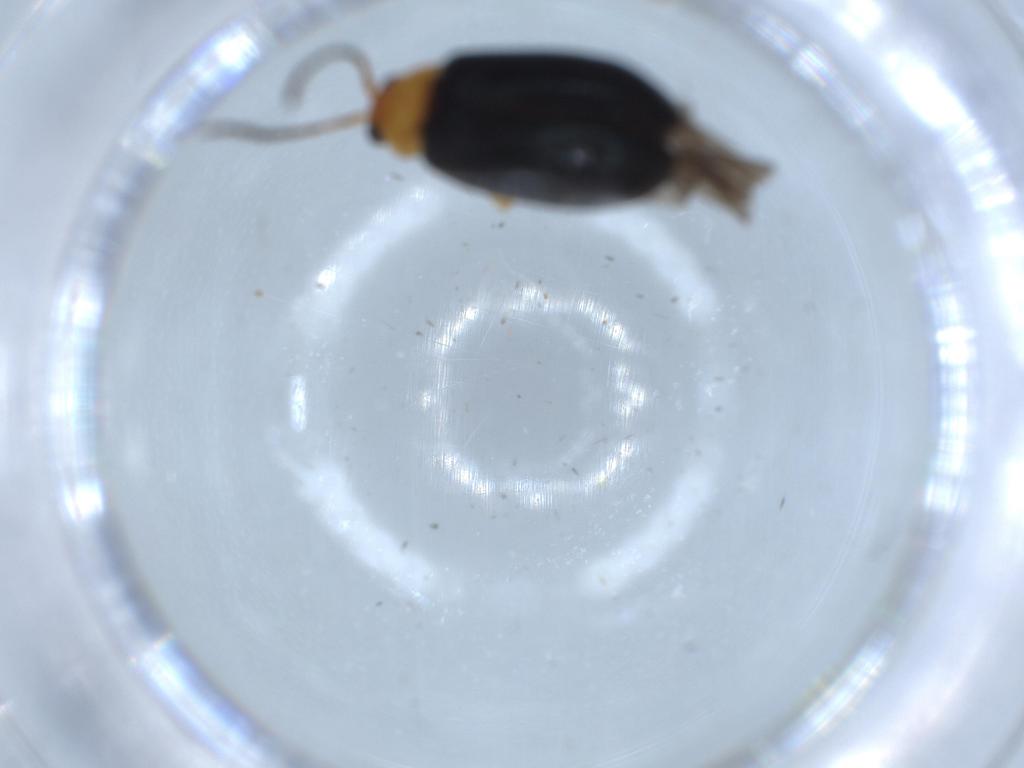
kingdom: Animalia
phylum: Arthropoda
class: Insecta
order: Coleoptera
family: Chrysomelidae
